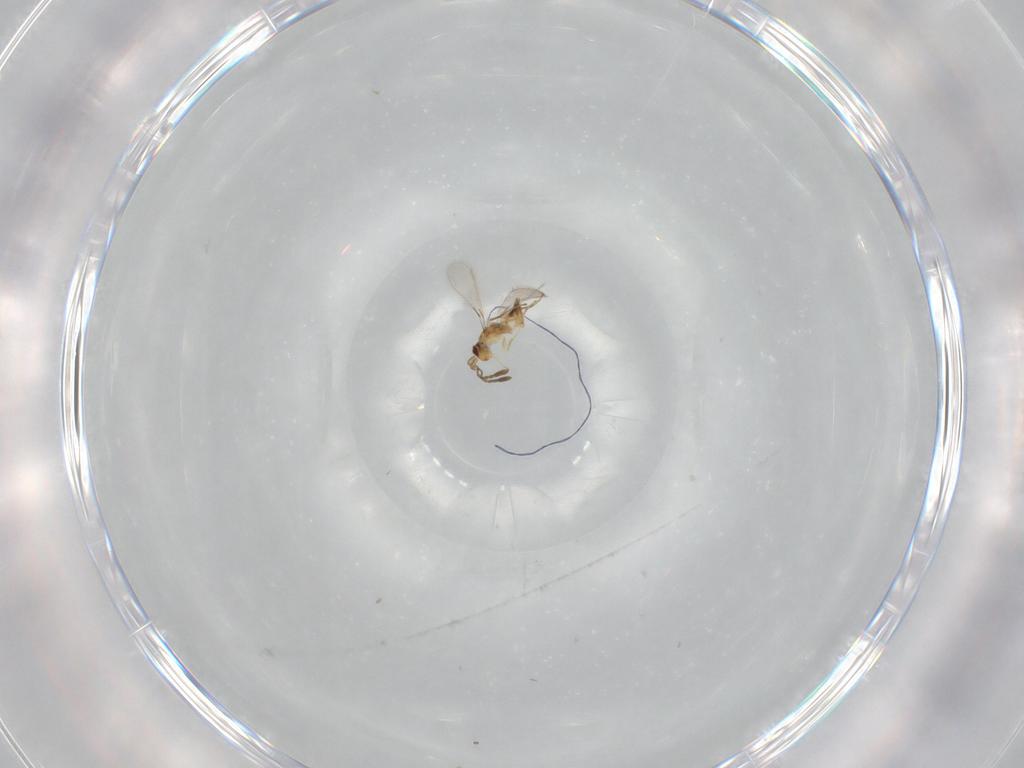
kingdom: Animalia
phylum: Arthropoda
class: Insecta
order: Hymenoptera
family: Mymaridae
